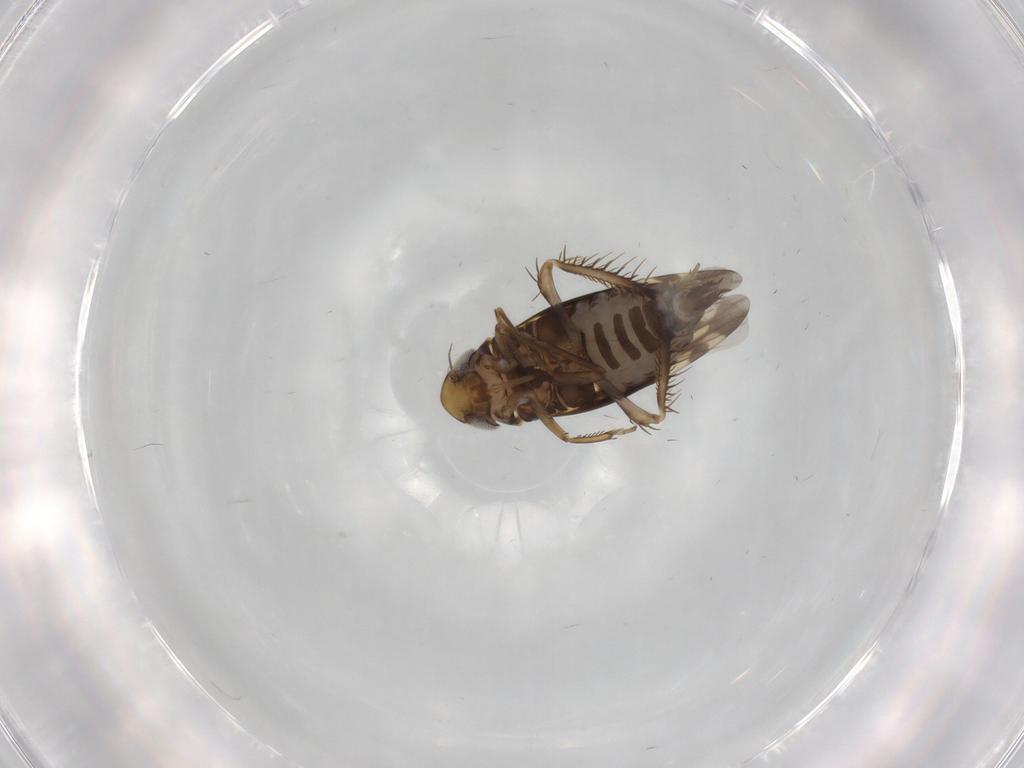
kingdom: Animalia
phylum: Arthropoda
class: Insecta
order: Hemiptera
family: Cicadellidae
